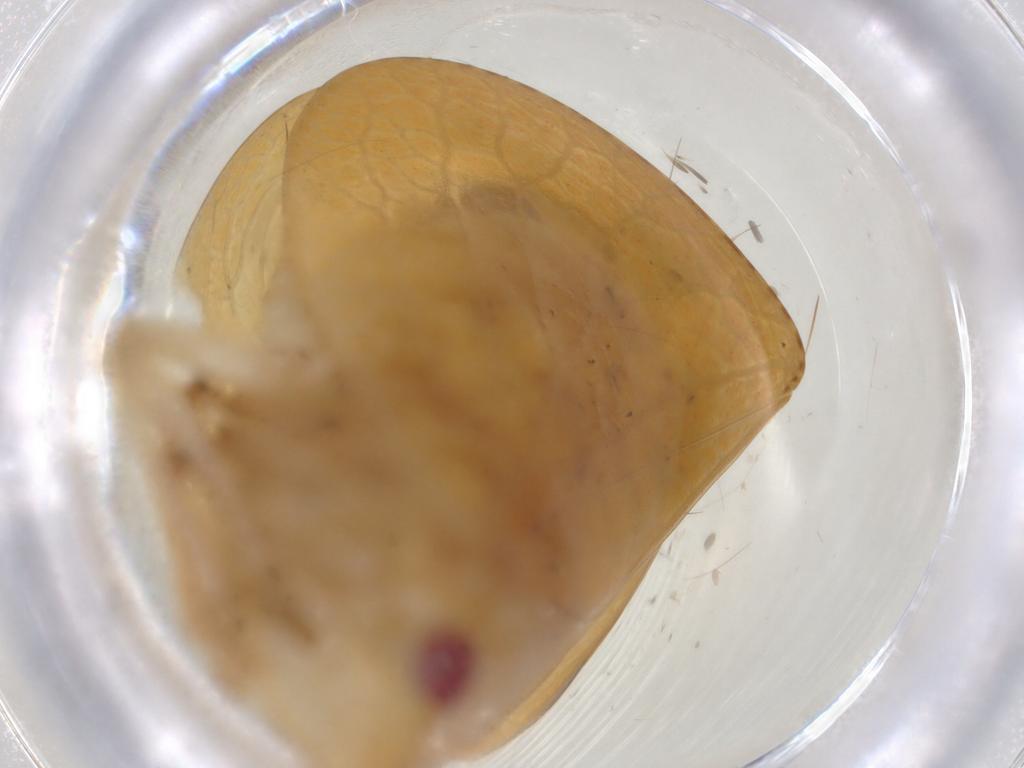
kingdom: Animalia
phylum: Arthropoda
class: Insecta
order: Hemiptera
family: Acanaloniidae
